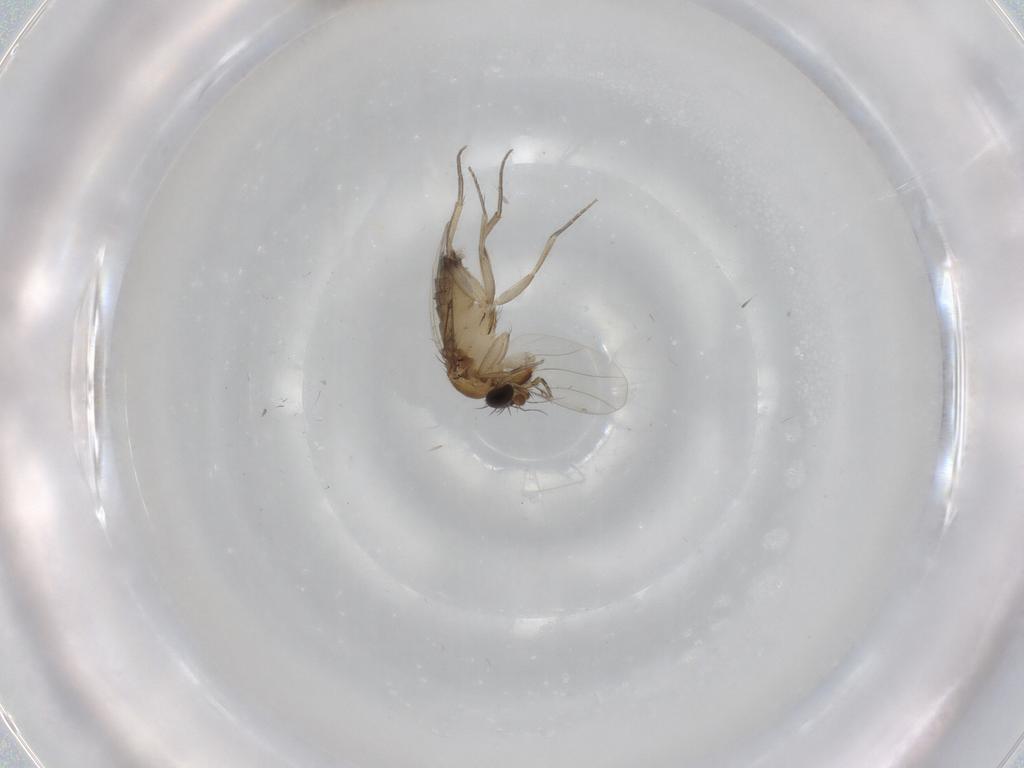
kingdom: Animalia
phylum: Arthropoda
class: Insecta
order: Diptera
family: Phoridae
